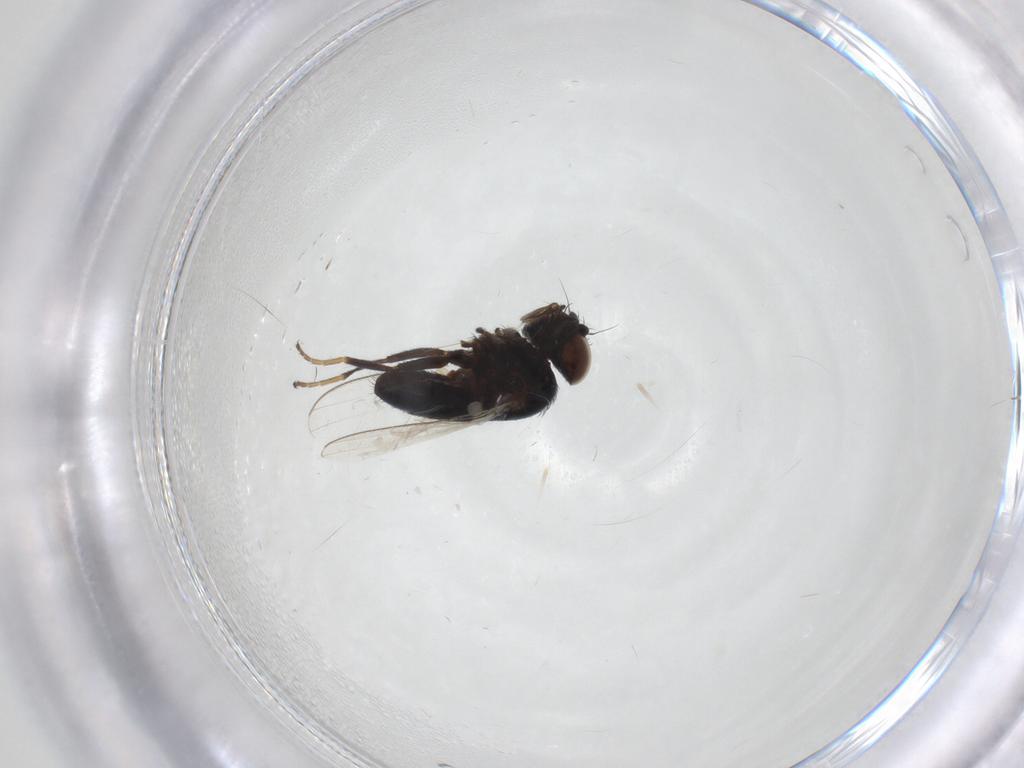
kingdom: Animalia
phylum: Arthropoda
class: Insecta
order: Diptera
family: Milichiidae
